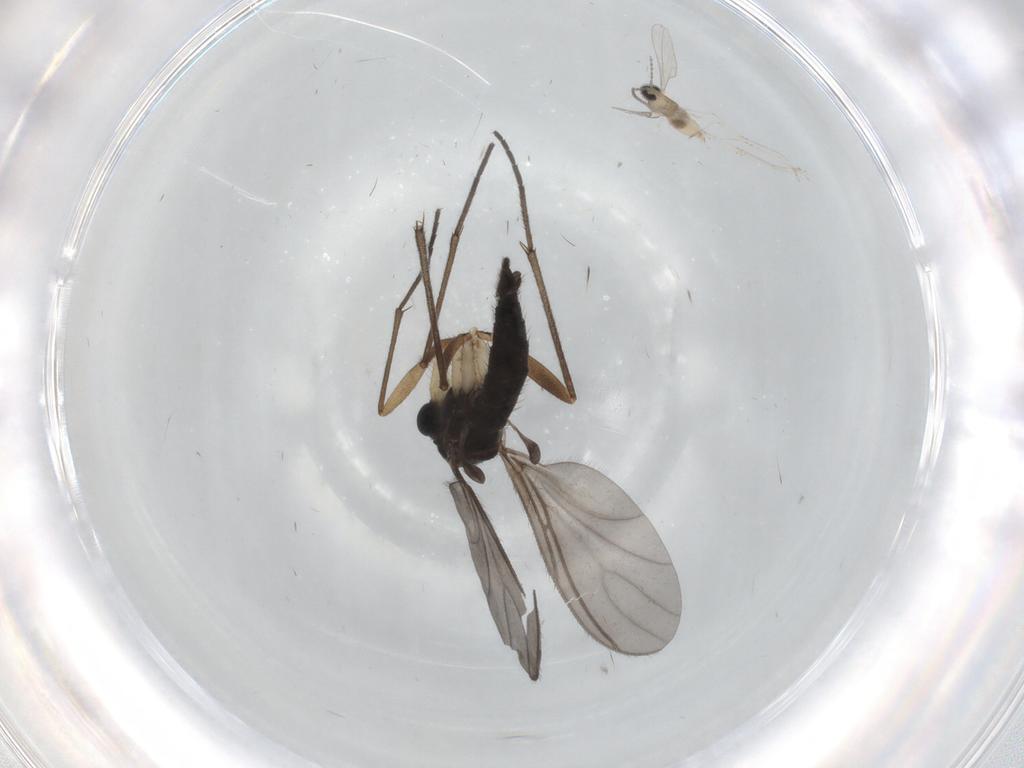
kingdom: Animalia
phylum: Arthropoda
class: Insecta
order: Diptera
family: Sciaridae
